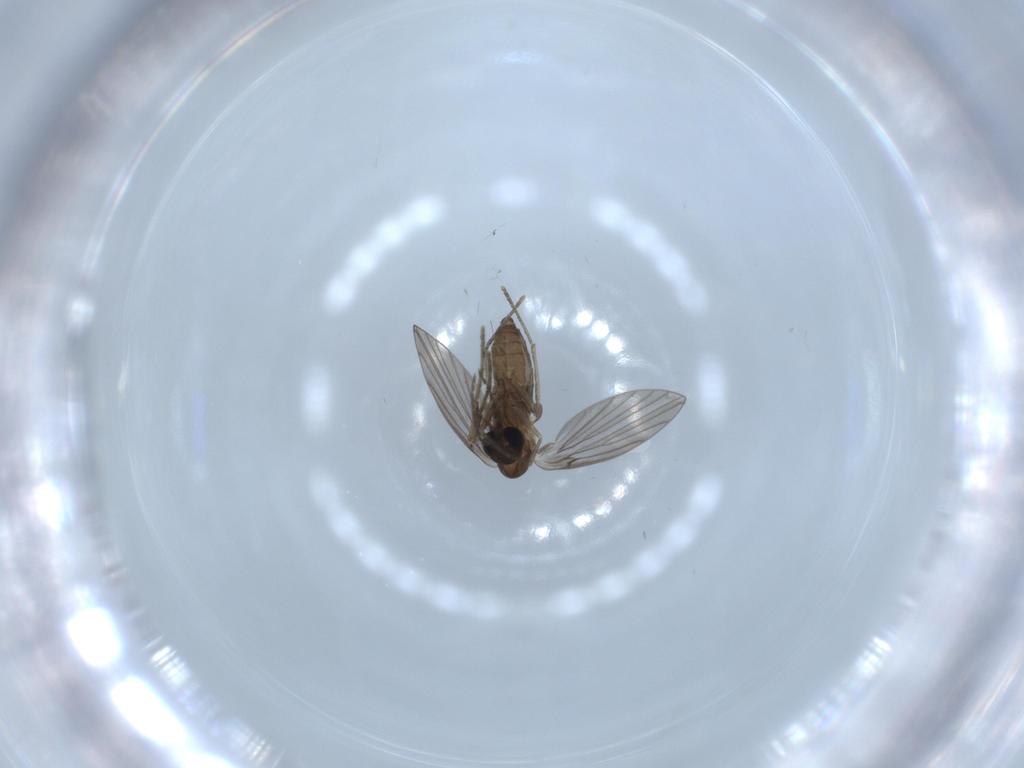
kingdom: Animalia
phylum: Arthropoda
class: Insecta
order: Diptera
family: Psychodidae
